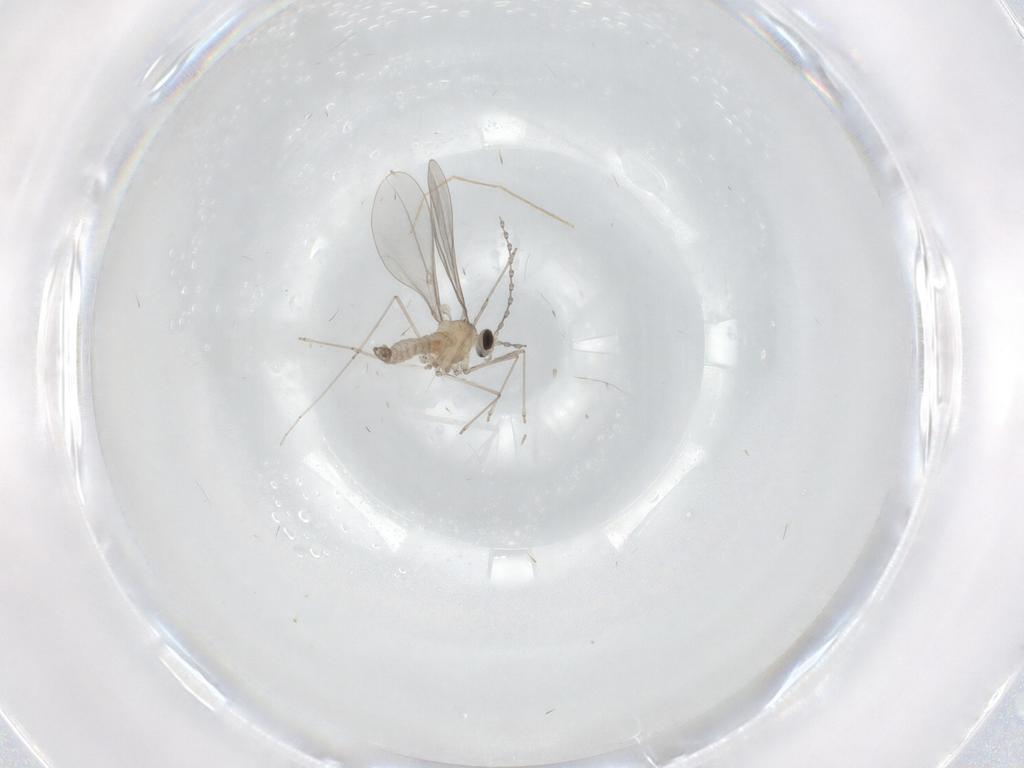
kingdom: Animalia
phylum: Arthropoda
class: Insecta
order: Diptera
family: Chironomidae
